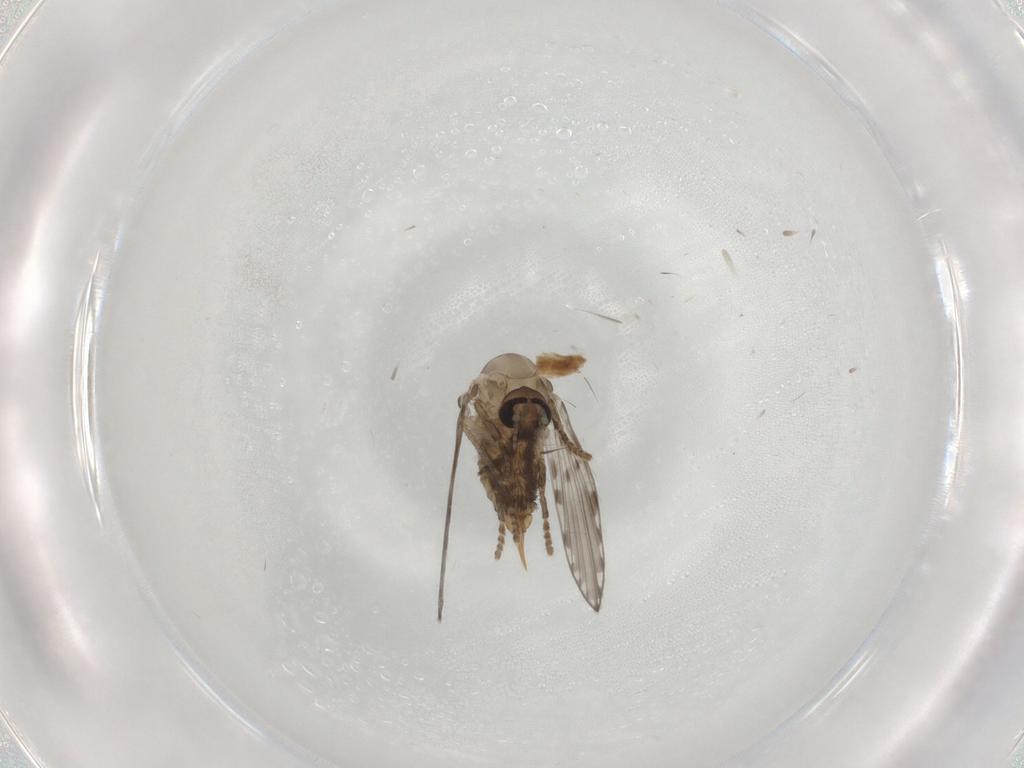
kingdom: Animalia
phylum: Arthropoda
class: Insecta
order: Diptera
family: Psychodidae
